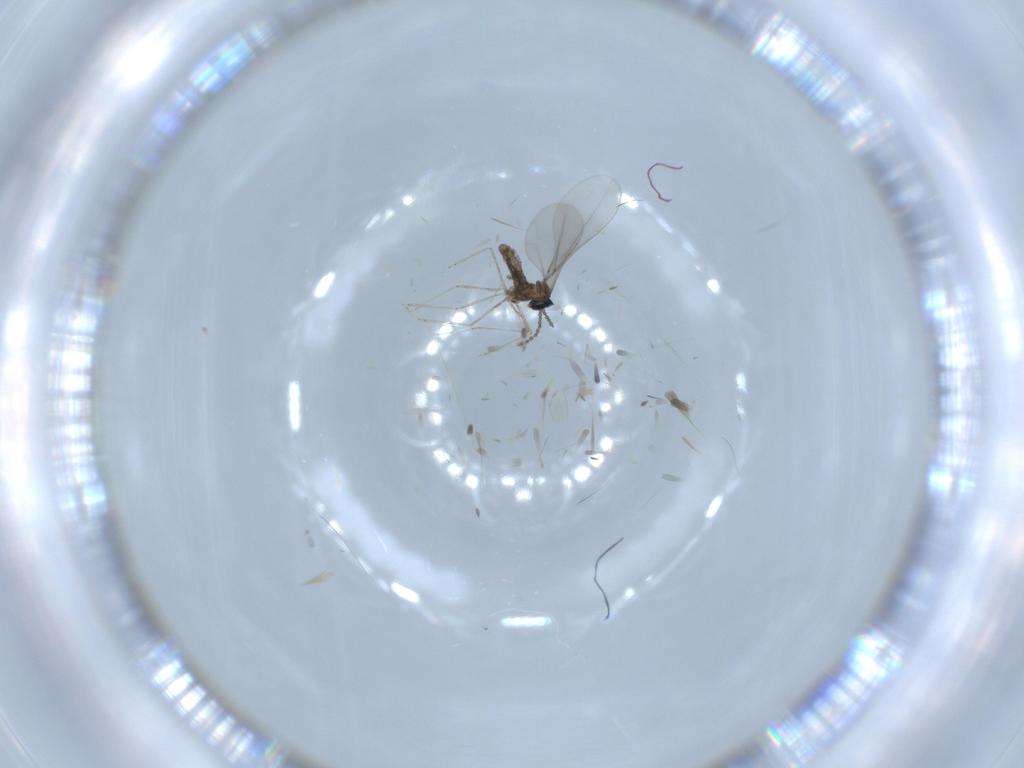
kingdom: Animalia
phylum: Arthropoda
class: Insecta
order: Diptera
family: Cecidomyiidae
